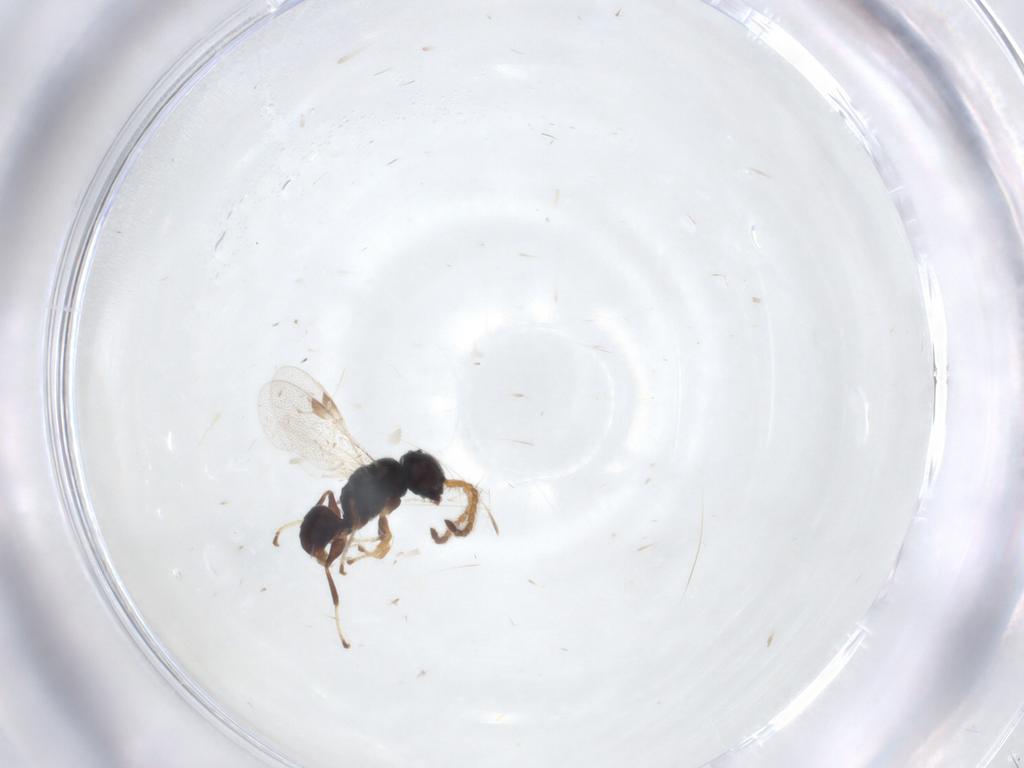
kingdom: Animalia
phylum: Arthropoda
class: Insecta
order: Hymenoptera
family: Dryinidae
